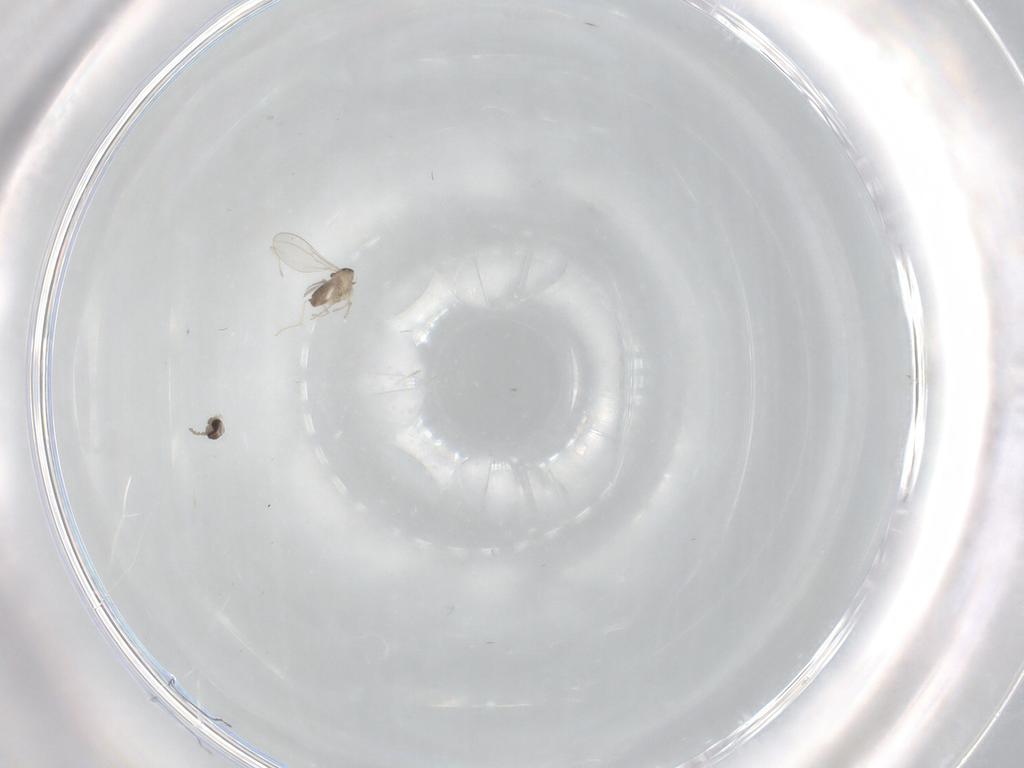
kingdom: Animalia
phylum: Arthropoda
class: Insecta
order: Diptera
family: Cecidomyiidae
